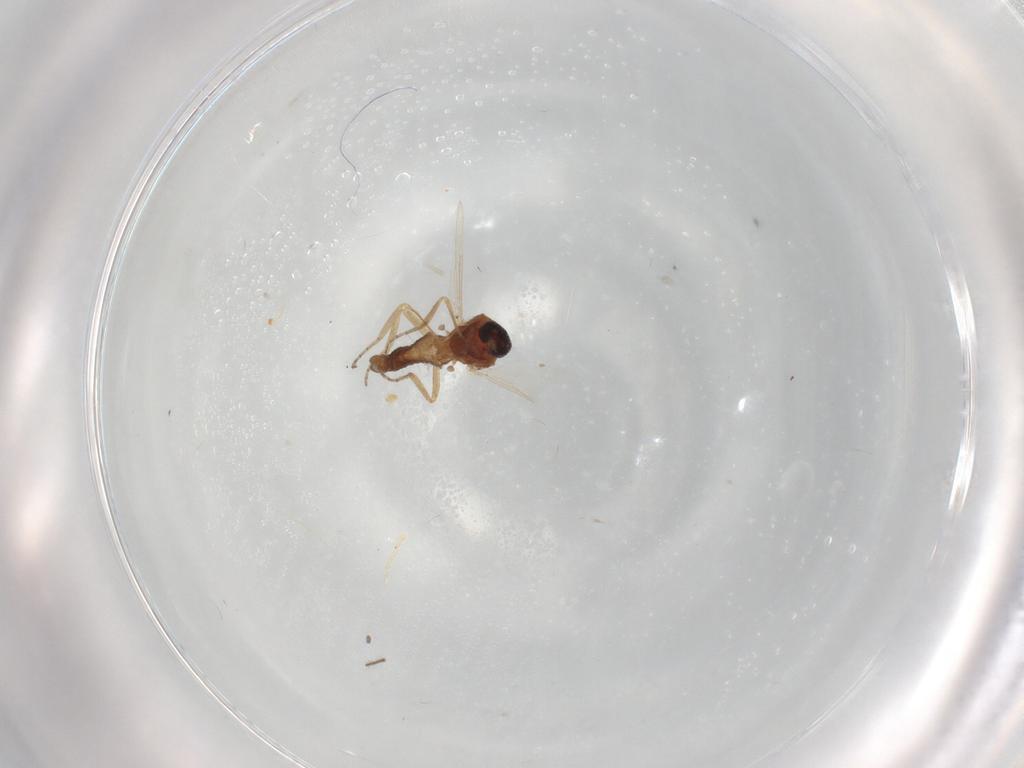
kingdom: Animalia
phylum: Arthropoda
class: Insecta
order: Diptera
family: Ceratopogonidae
